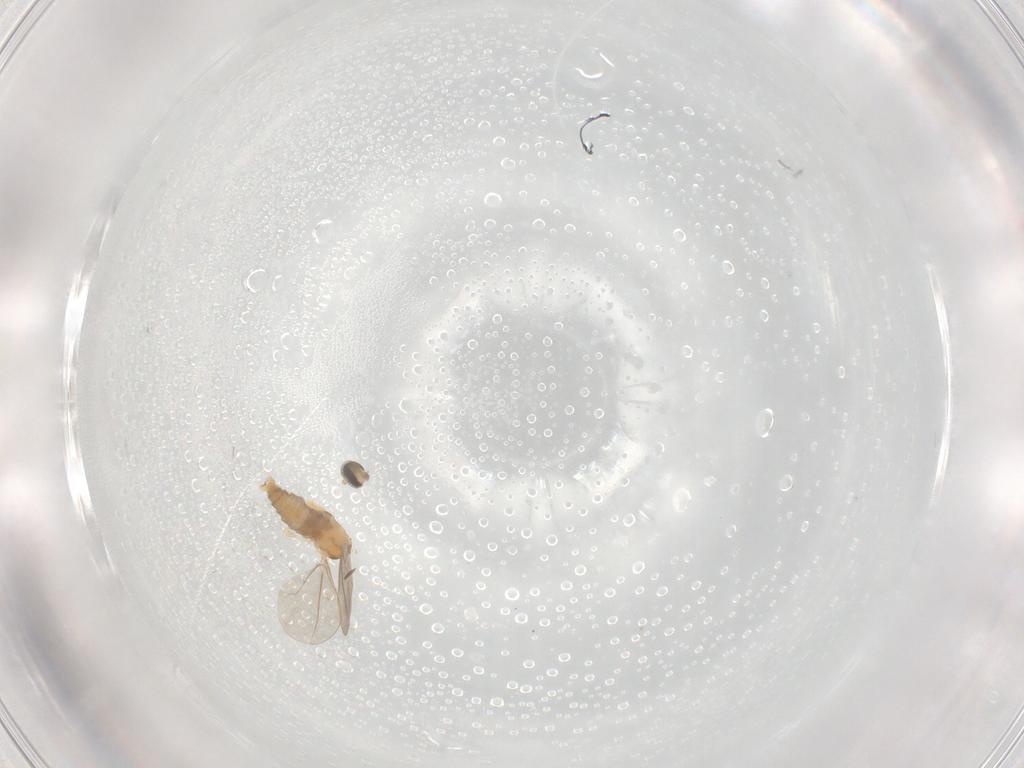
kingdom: Animalia
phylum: Arthropoda
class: Insecta
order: Diptera
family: Cecidomyiidae
